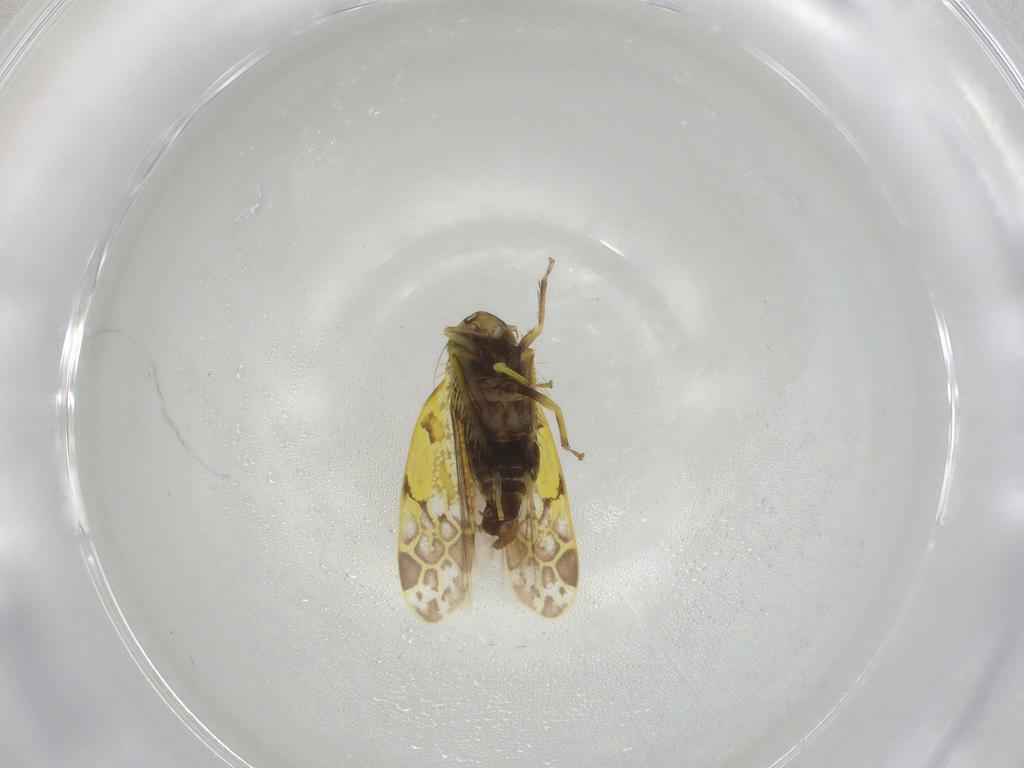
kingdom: Animalia
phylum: Arthropoda
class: Insecta
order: Hemiptera
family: Cicadellidae
